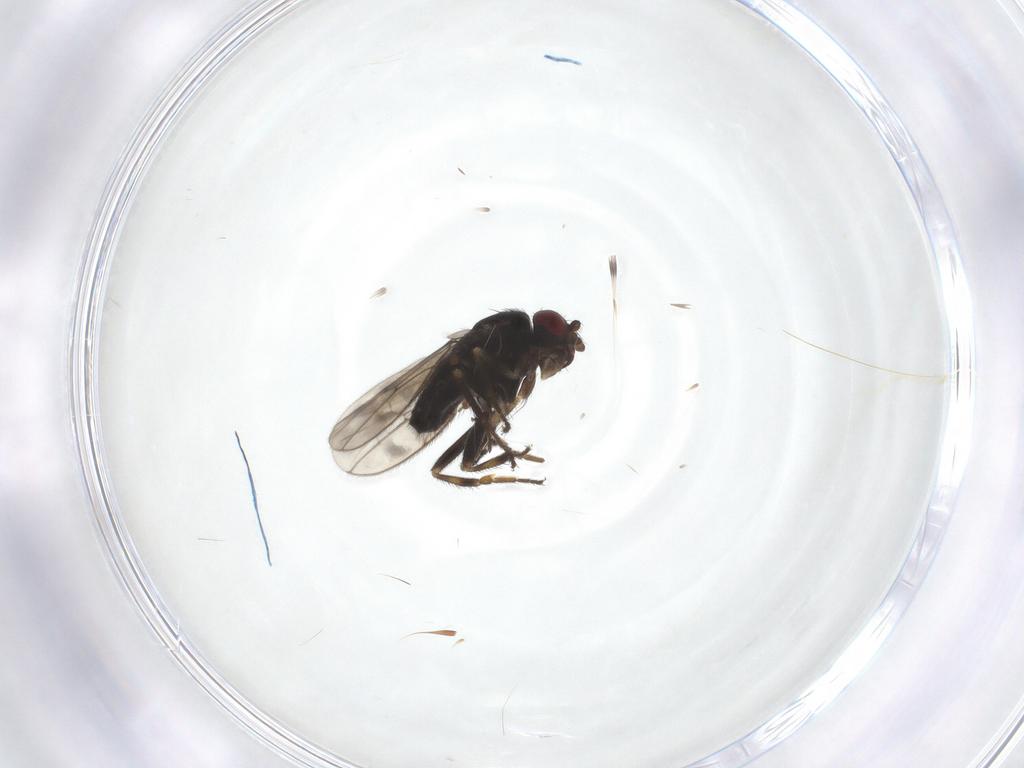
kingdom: Animalia
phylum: Arthropoda
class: Insecta
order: Diptera
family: Sphaeroceridae
